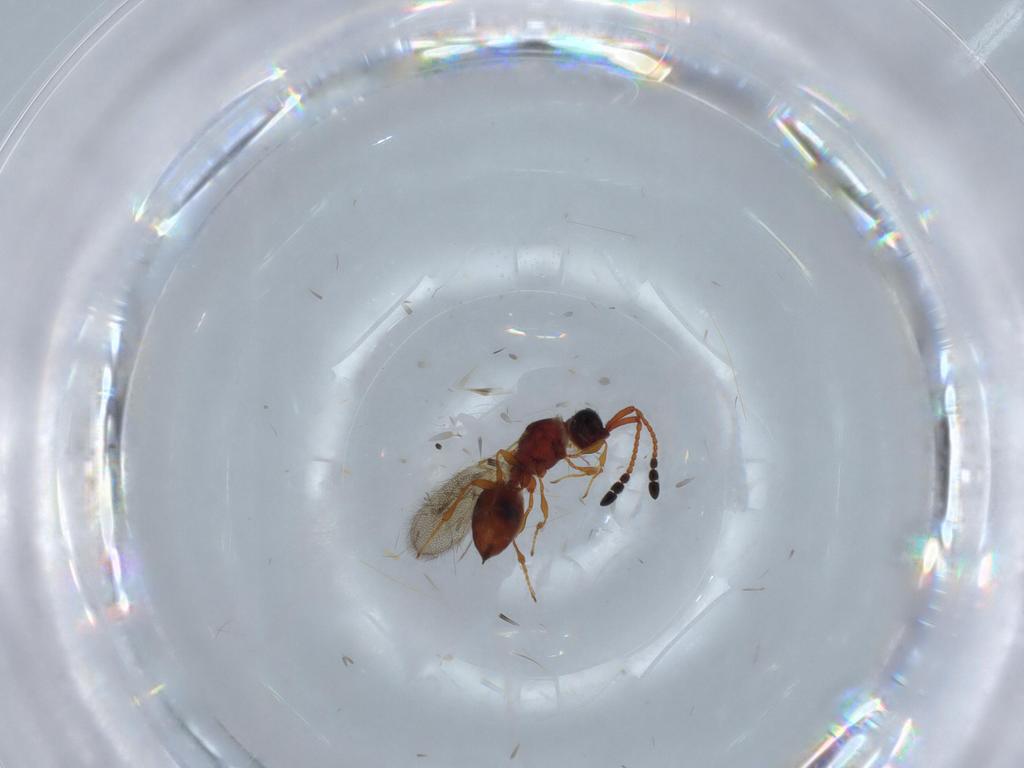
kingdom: Animalia
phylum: Arthropoda
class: Insecta
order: Hymenoptera
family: Diapriidae
